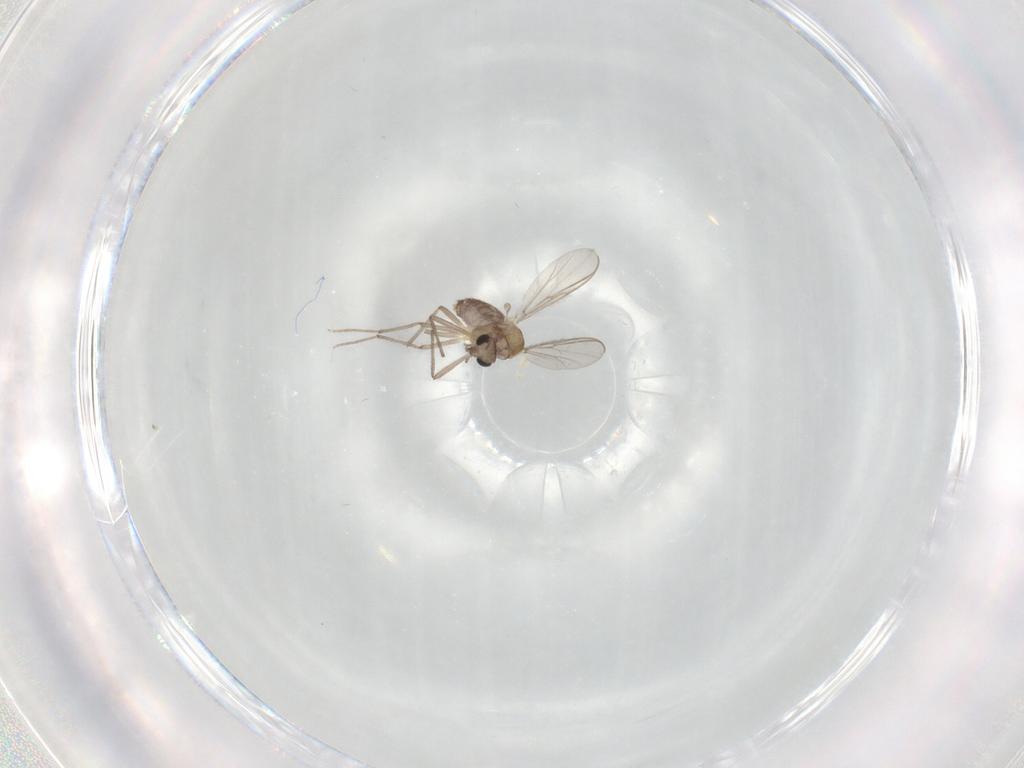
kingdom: Animalia
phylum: Arthropoda
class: Insecta
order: Diptera
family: Chironomidae
